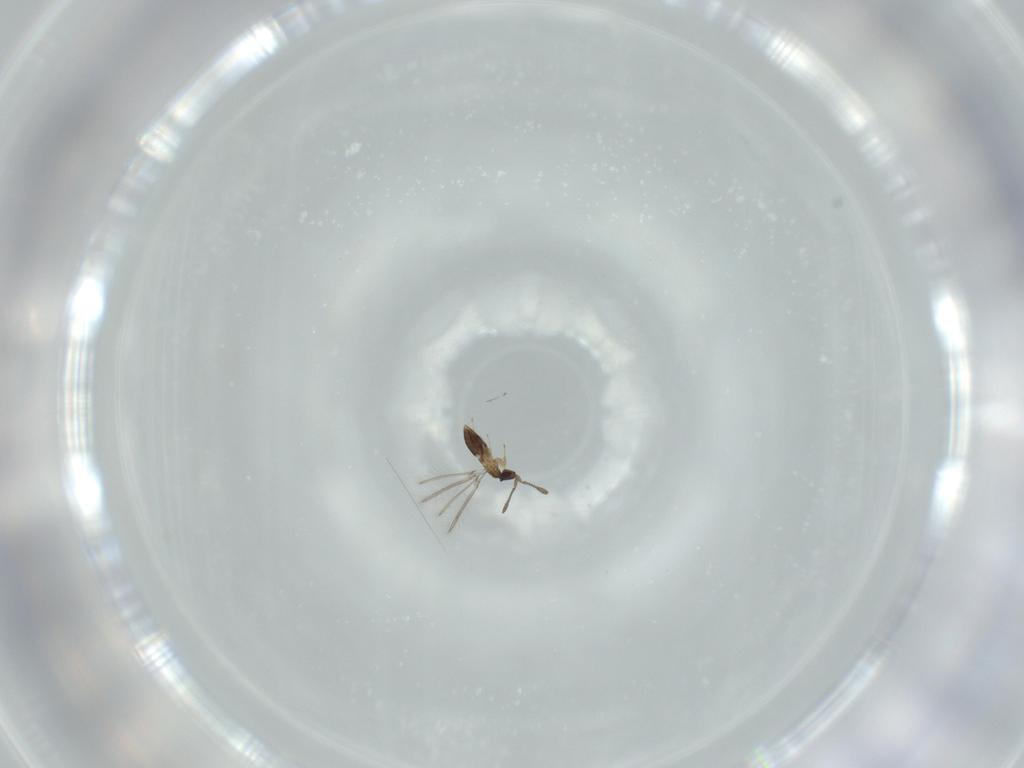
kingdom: Animalia
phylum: Arthropoda
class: Insecta
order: Hymenoptera
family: Mymaridae
